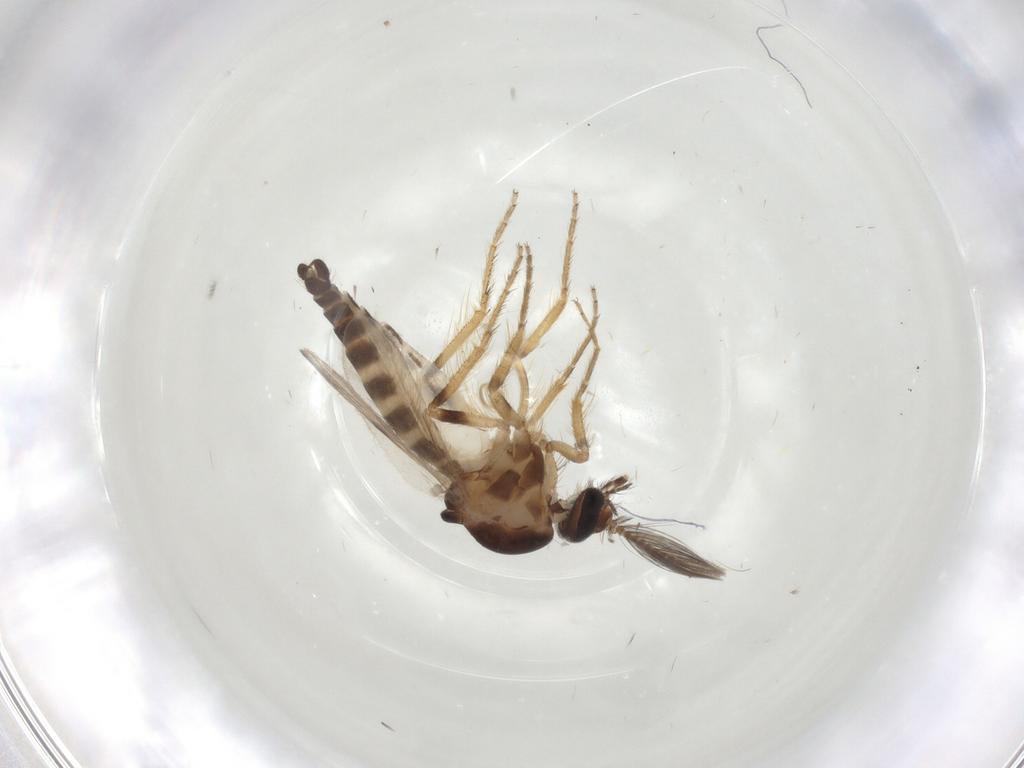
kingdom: Animalia
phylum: Arthropoda
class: Insecta
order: Diptera
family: Ceratopogonidae
